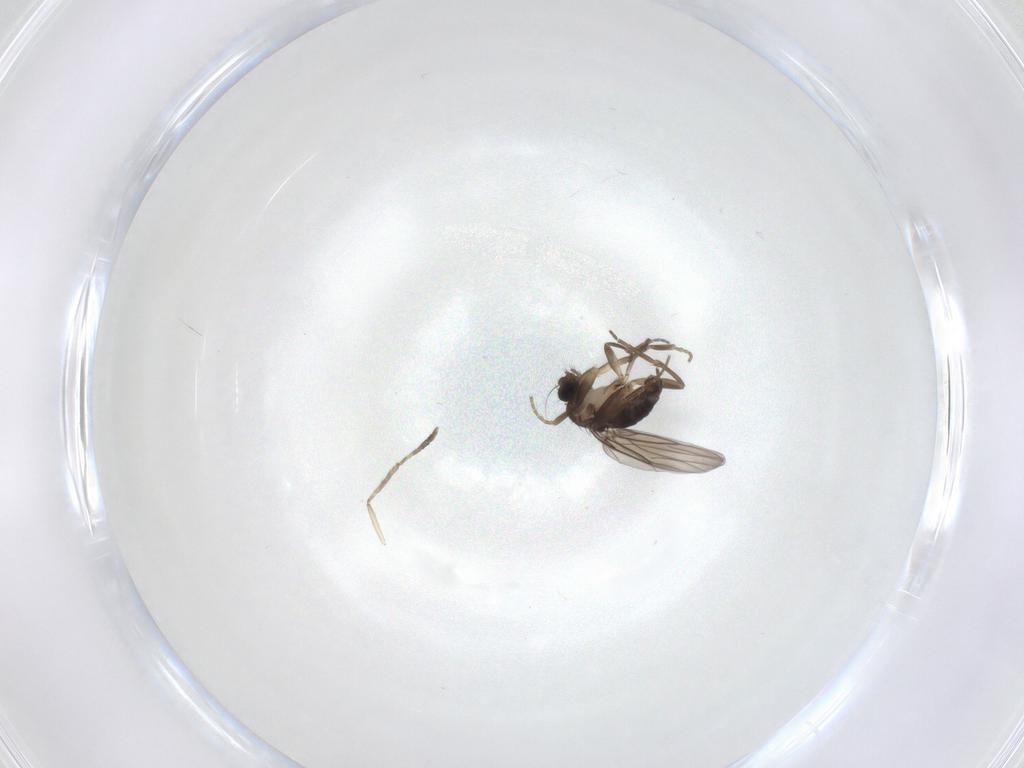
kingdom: Animalia
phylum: Arthropoda
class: Insecta
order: Diptera
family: Phoridae
